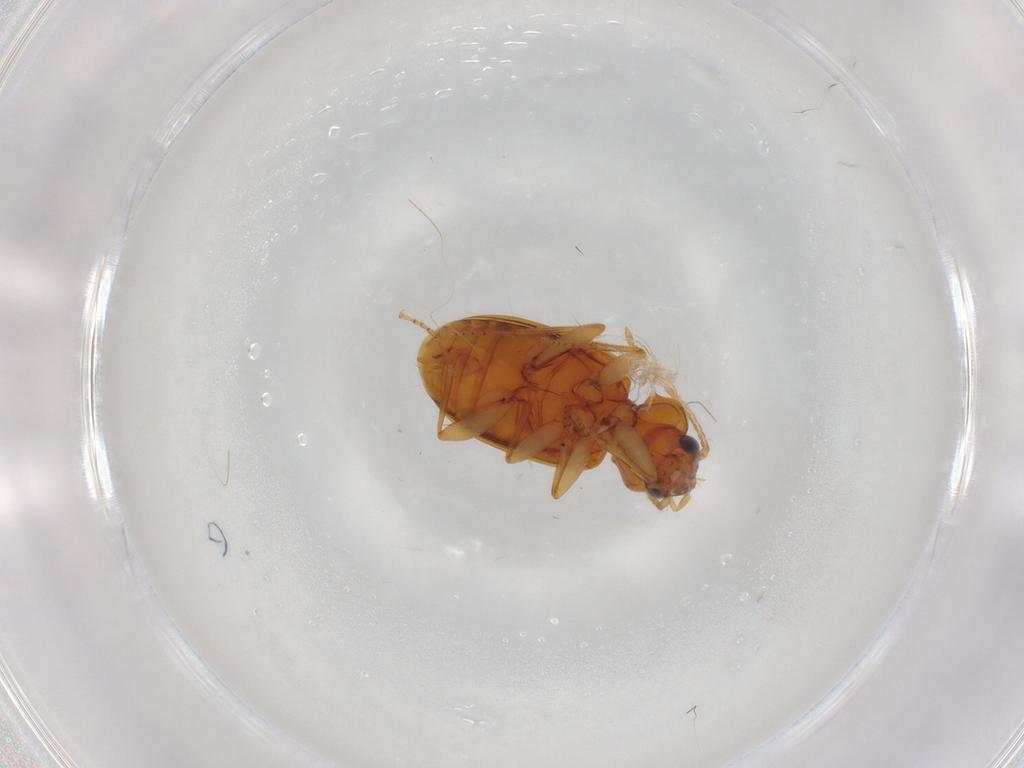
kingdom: Animalia
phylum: Arthropoda
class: Insecta
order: Coleoptera
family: Carabidae
